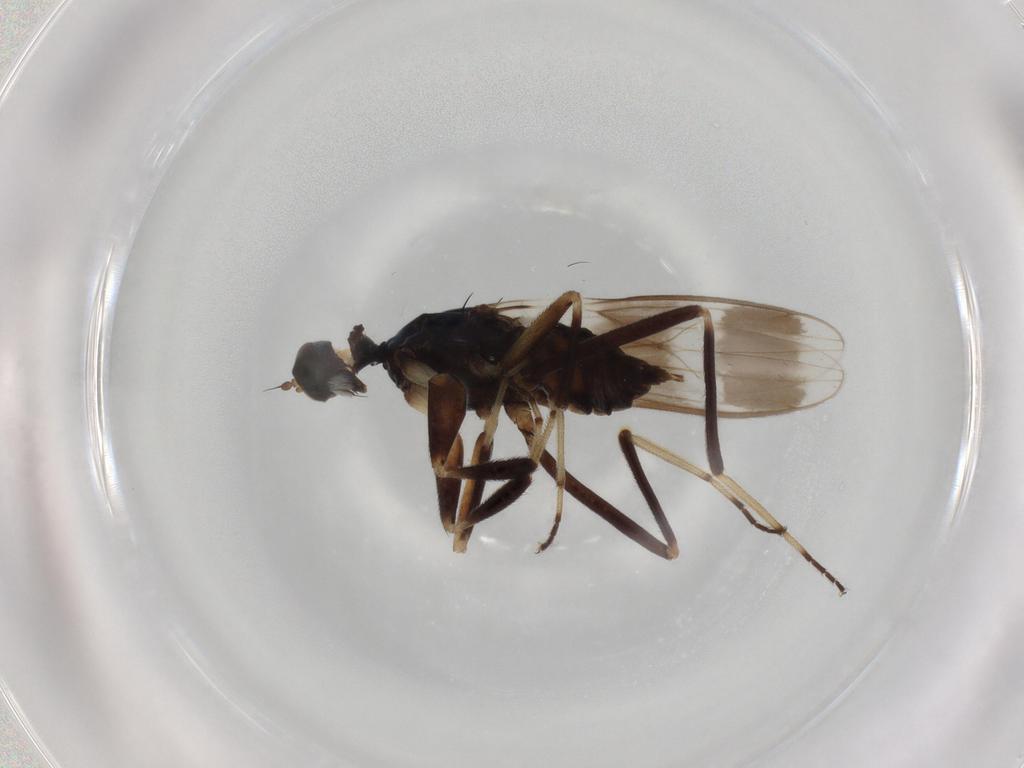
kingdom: Animalia
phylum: Arthropoda
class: Insecta
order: Diptera
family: Hybotidae
